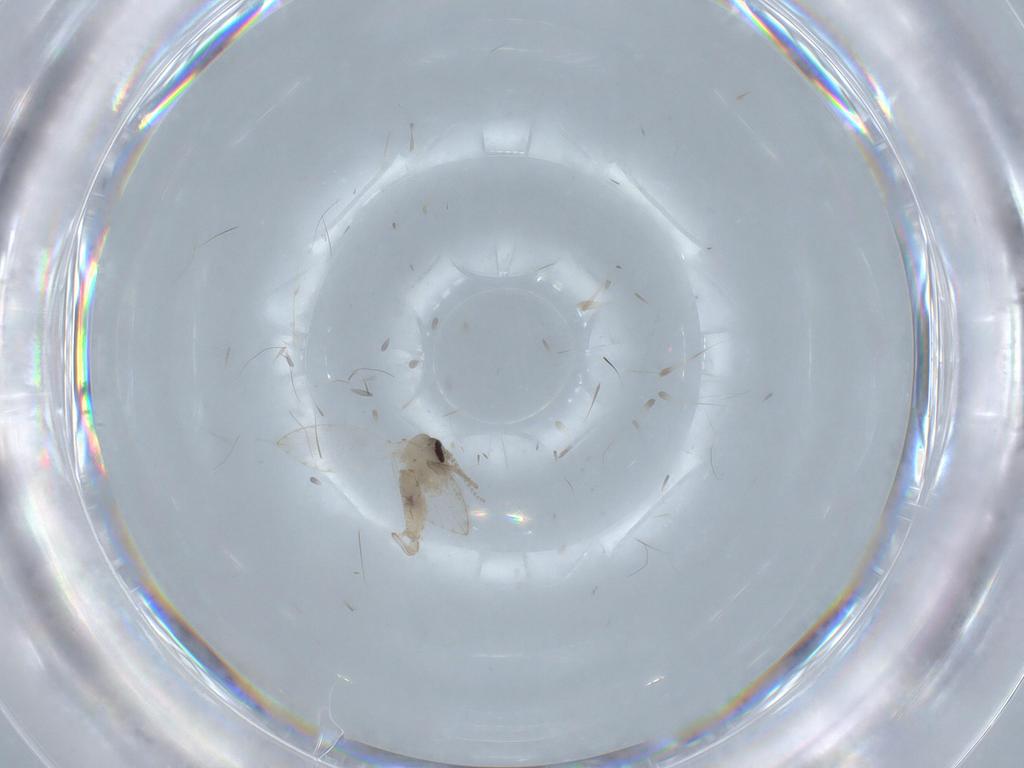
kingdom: Animalia
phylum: Arthropoda
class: Insecta
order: Diptera
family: Psychodidae
